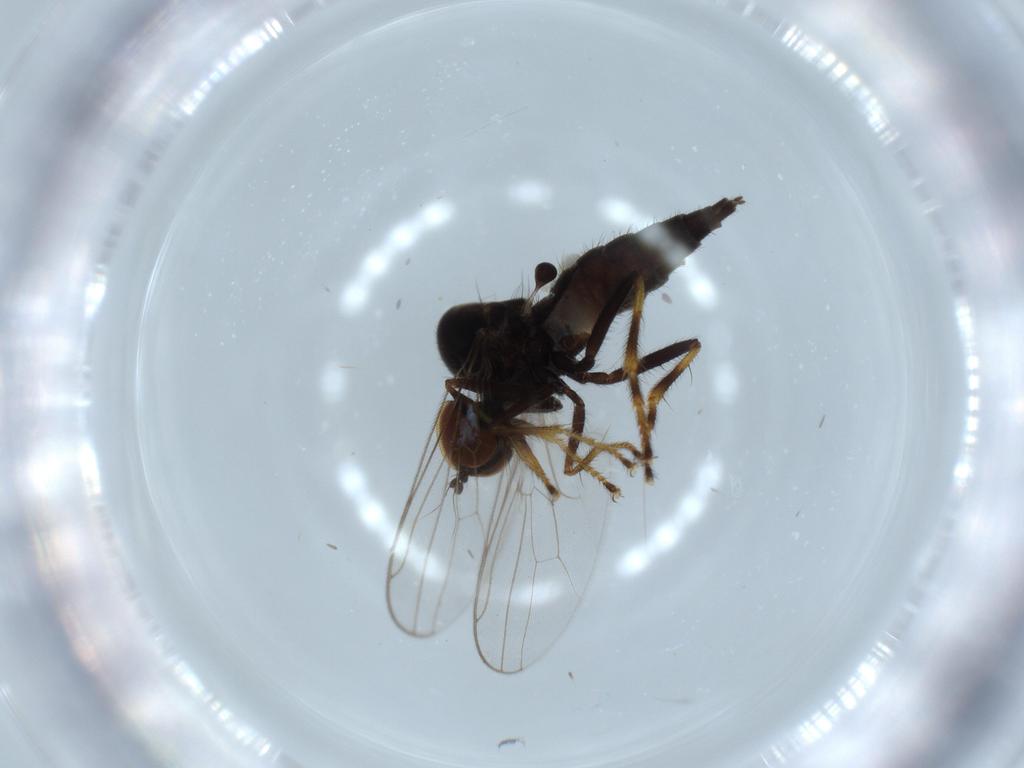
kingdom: Animalia
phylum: Arthropoda
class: Insecta
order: Diptera
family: Hybotidae
